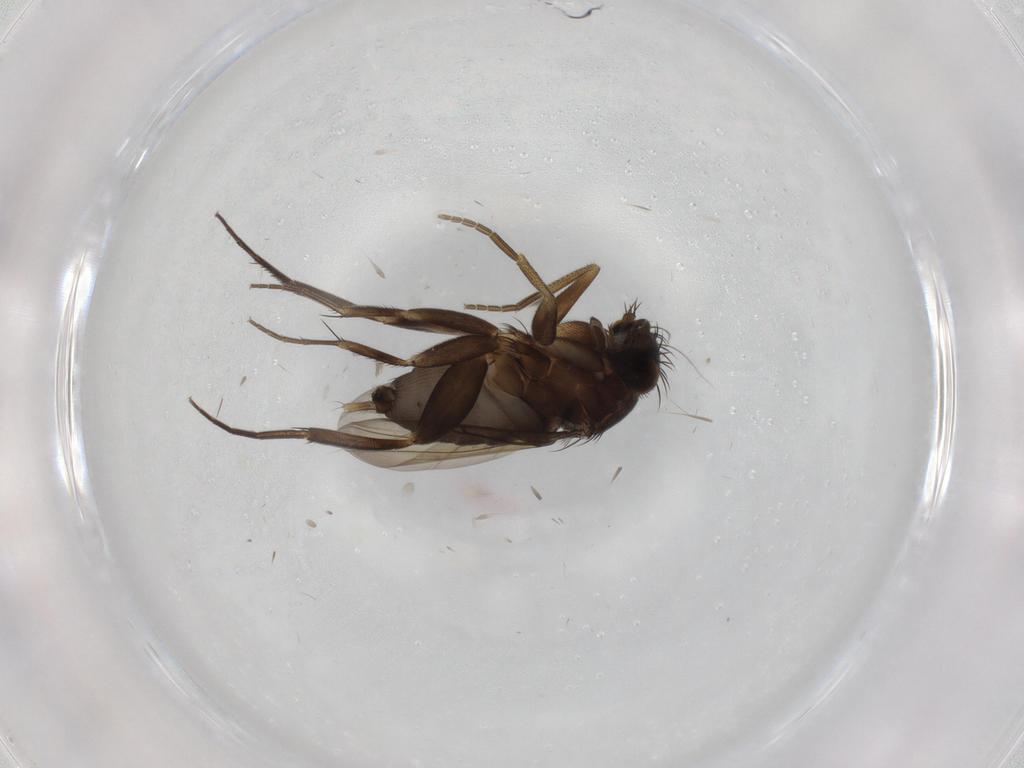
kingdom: Animalia
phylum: Arthropoda
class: Insecta
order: Diptera
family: Phoridae
